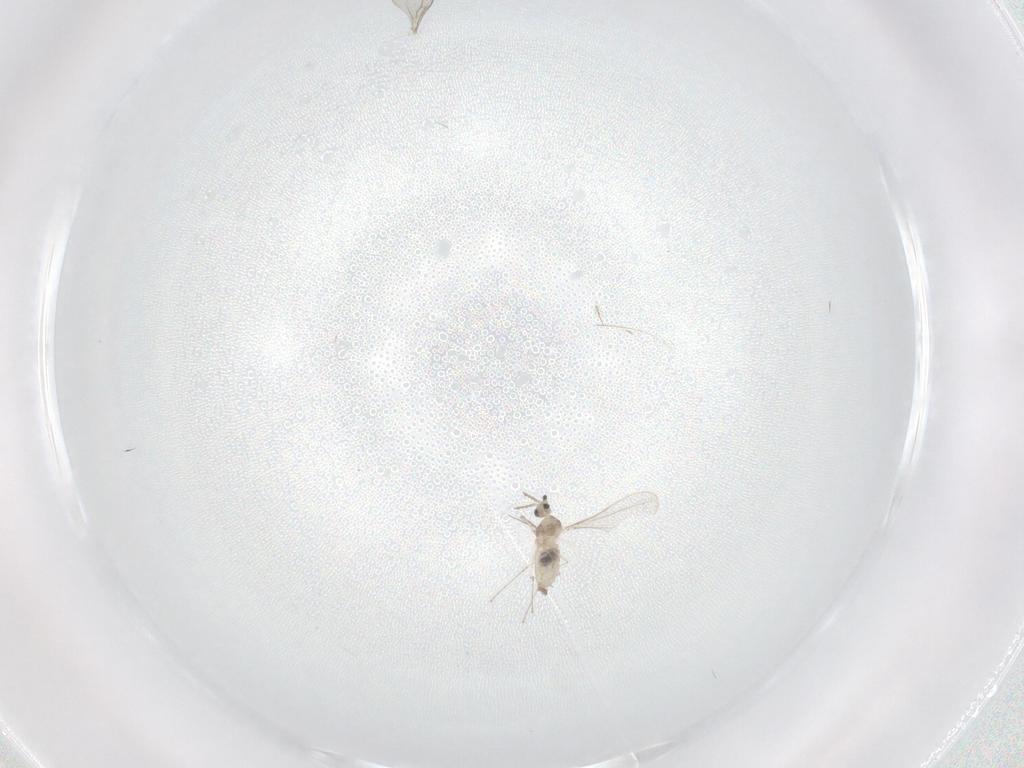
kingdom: Animalia
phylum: Arthropoda
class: Insecta
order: Diptera
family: Cecidomyiidae
